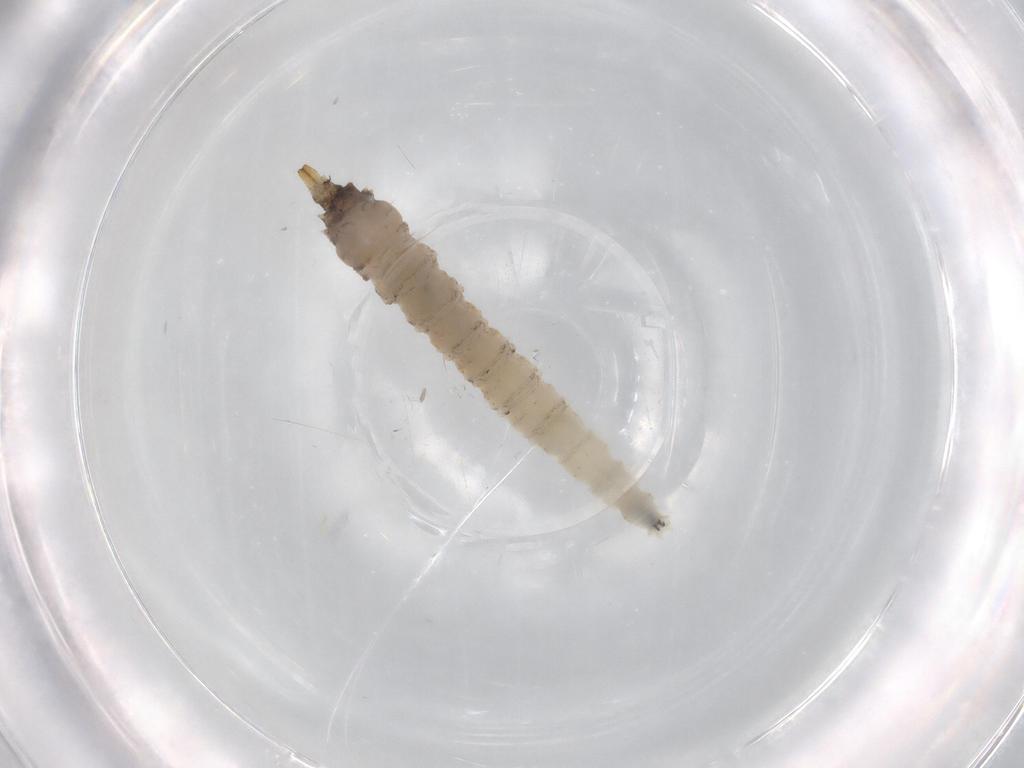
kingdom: Animalia
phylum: Arthropoda
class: Insecta
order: Diptera
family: Drosophilidae
